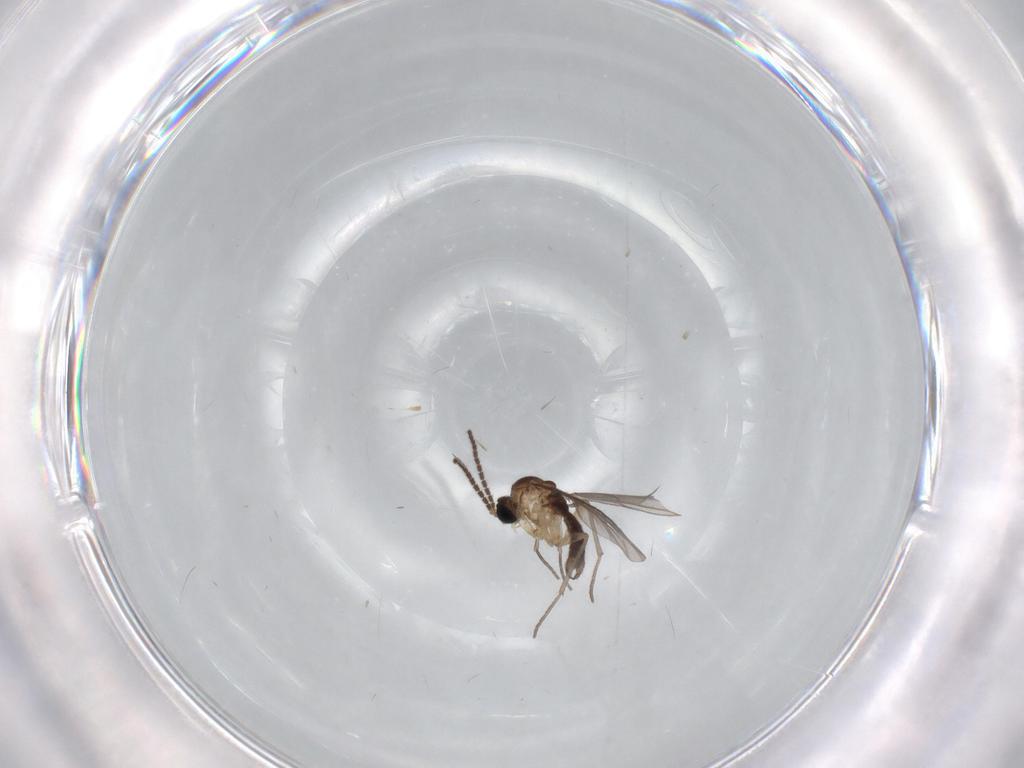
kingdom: Animalia
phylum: Arthropoda
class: Insecta
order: Diptera
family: Sciaridae
